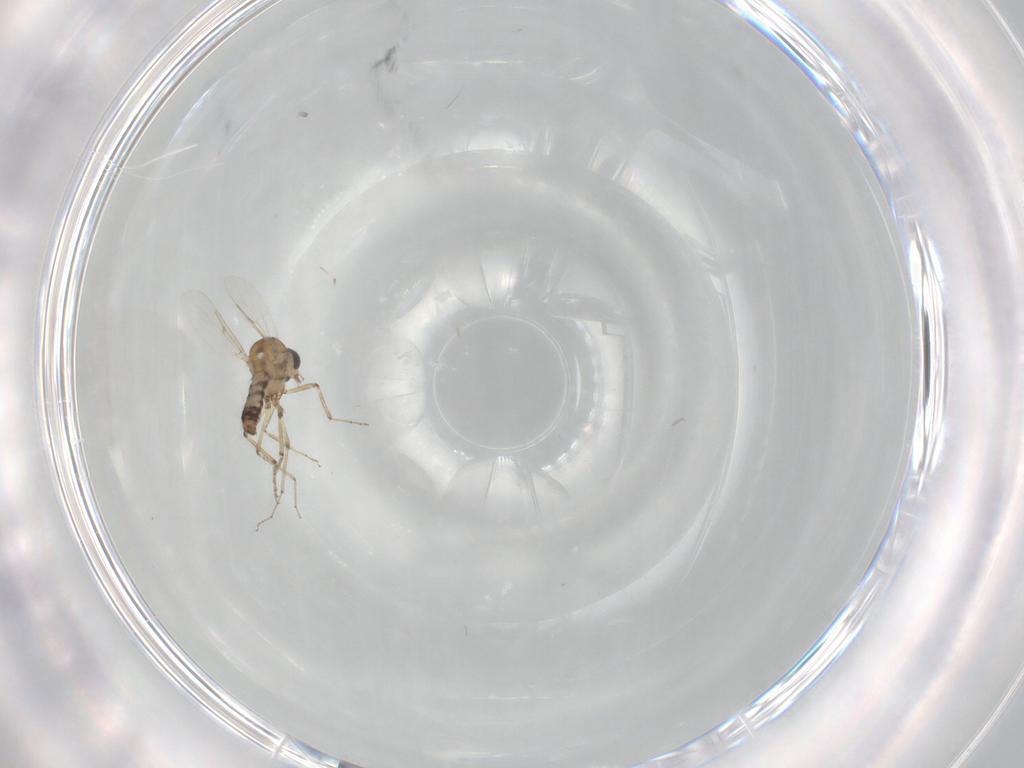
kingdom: Animalia
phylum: Arthropoda
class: Insecta
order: Diptera
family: Ceratopogonidae
